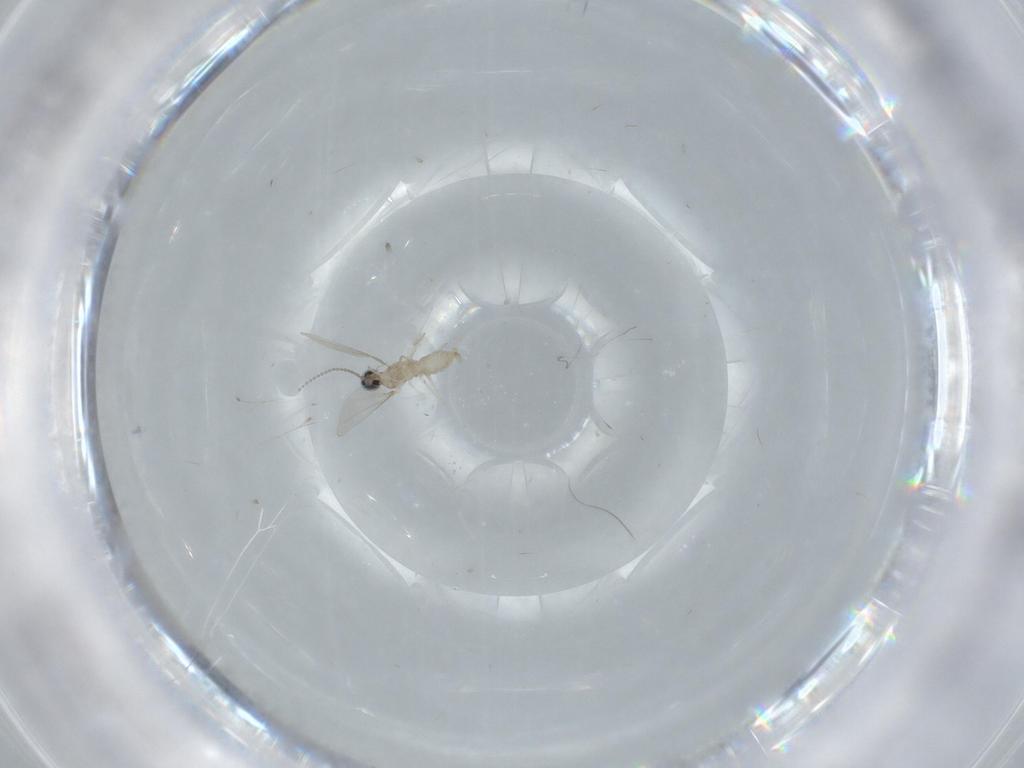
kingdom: Animalia
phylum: Arthropoda
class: Insecta
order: Diptera
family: Cecidomyiidae
